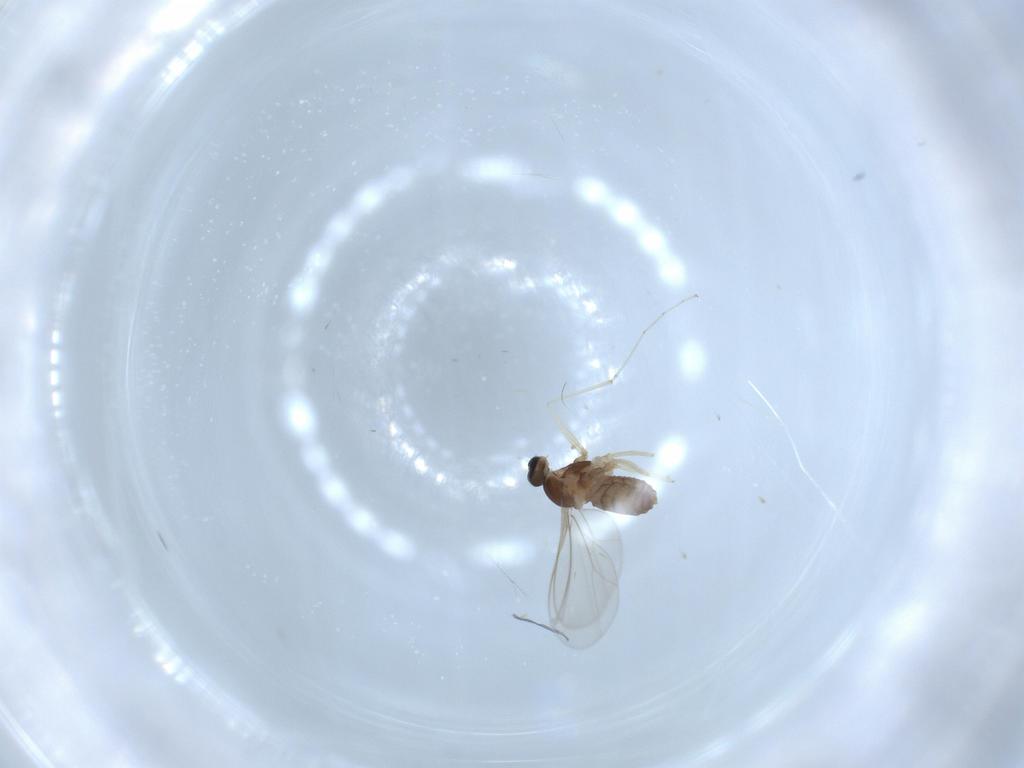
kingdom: Animalia
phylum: Arthropoda
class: Insecta
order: Diptera
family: Cecidomyiidae
